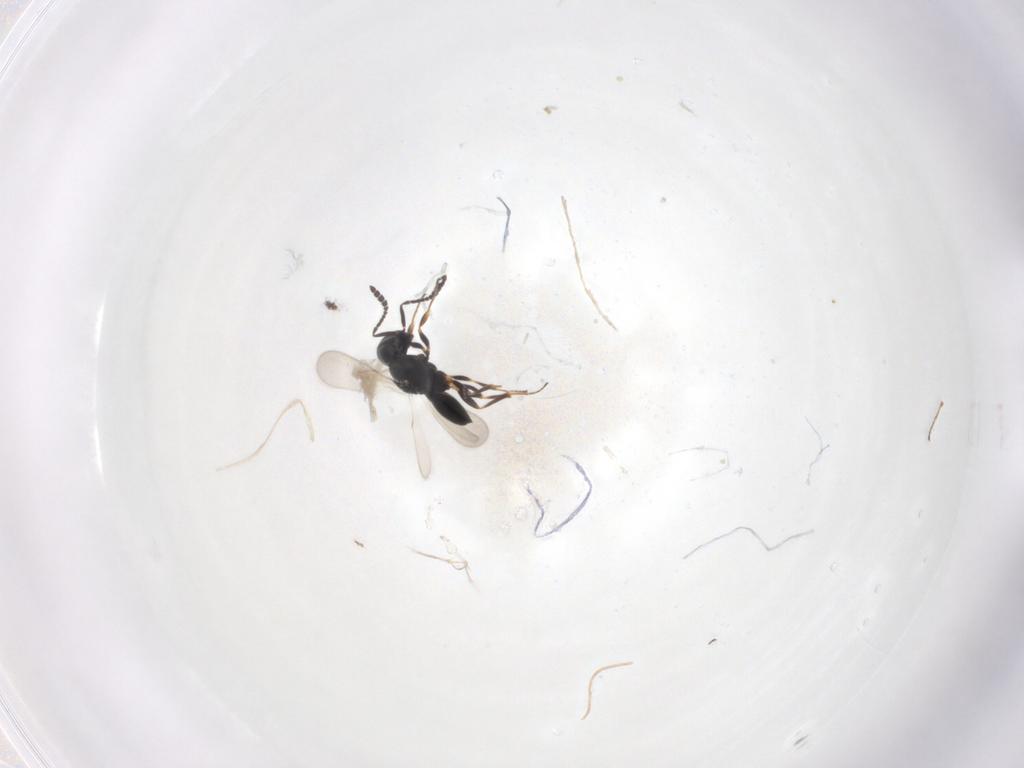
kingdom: Animalia
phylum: Arthropoda
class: Insecta
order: Hymenoptera
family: Scelionidae
